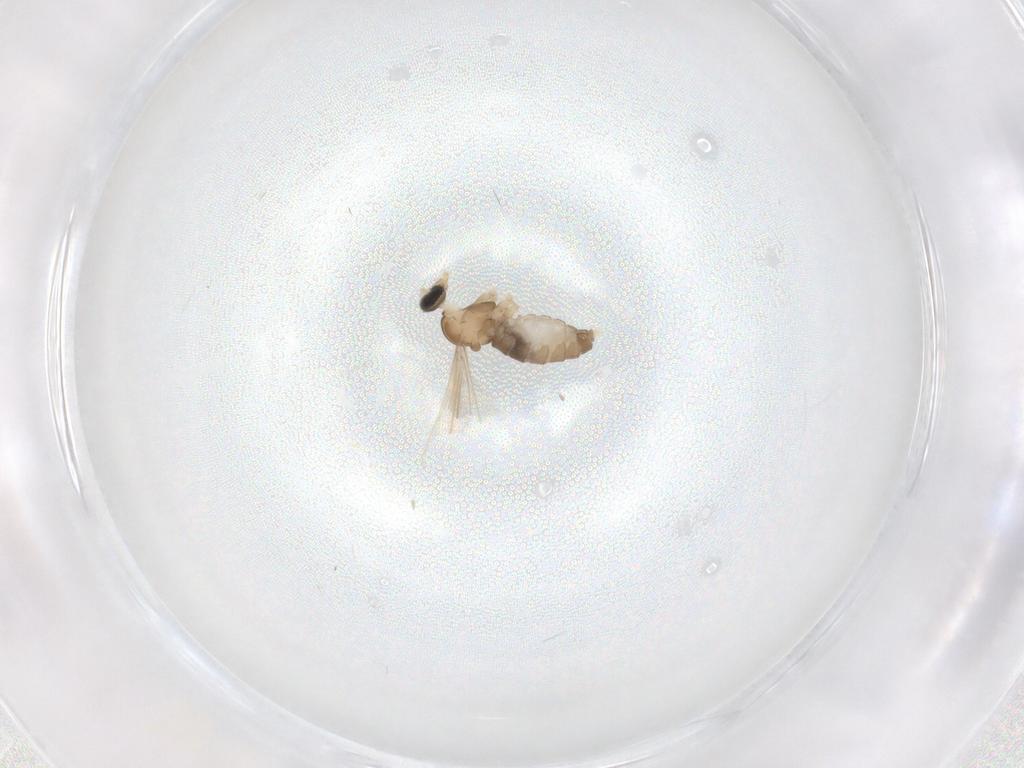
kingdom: Animalia
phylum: Arthropoda
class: Insecta
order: Diptera
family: Cecidomyiidae
